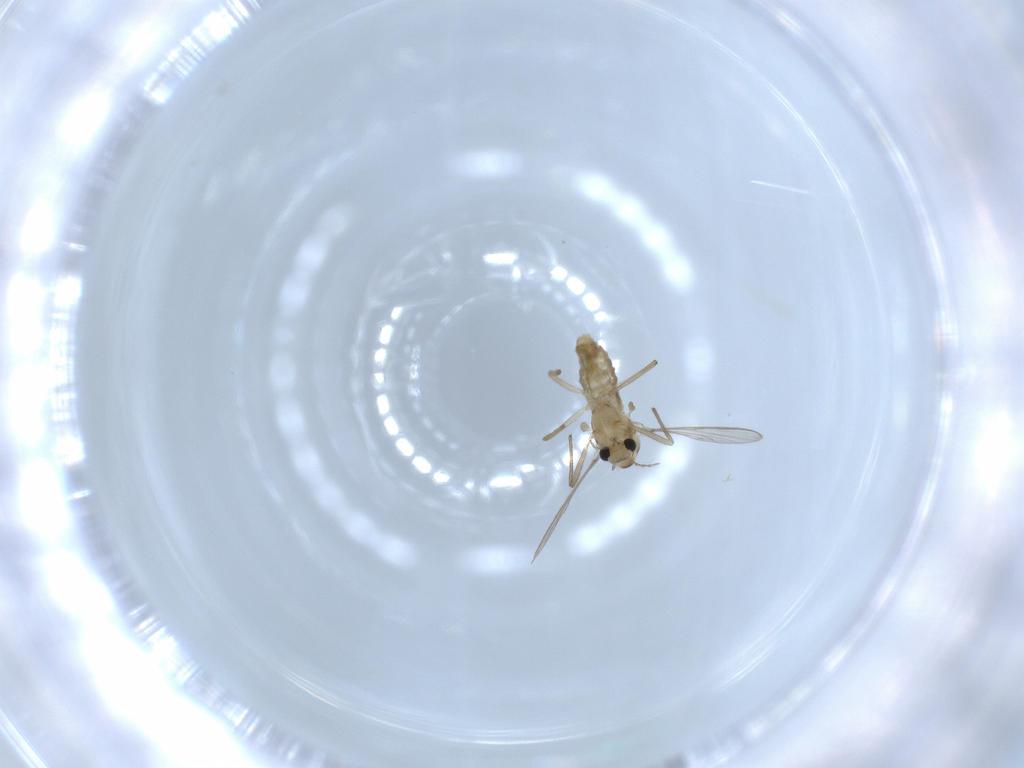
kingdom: Animalia
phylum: Arthropoda
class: Insecta
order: Diptera
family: Chironomidae
